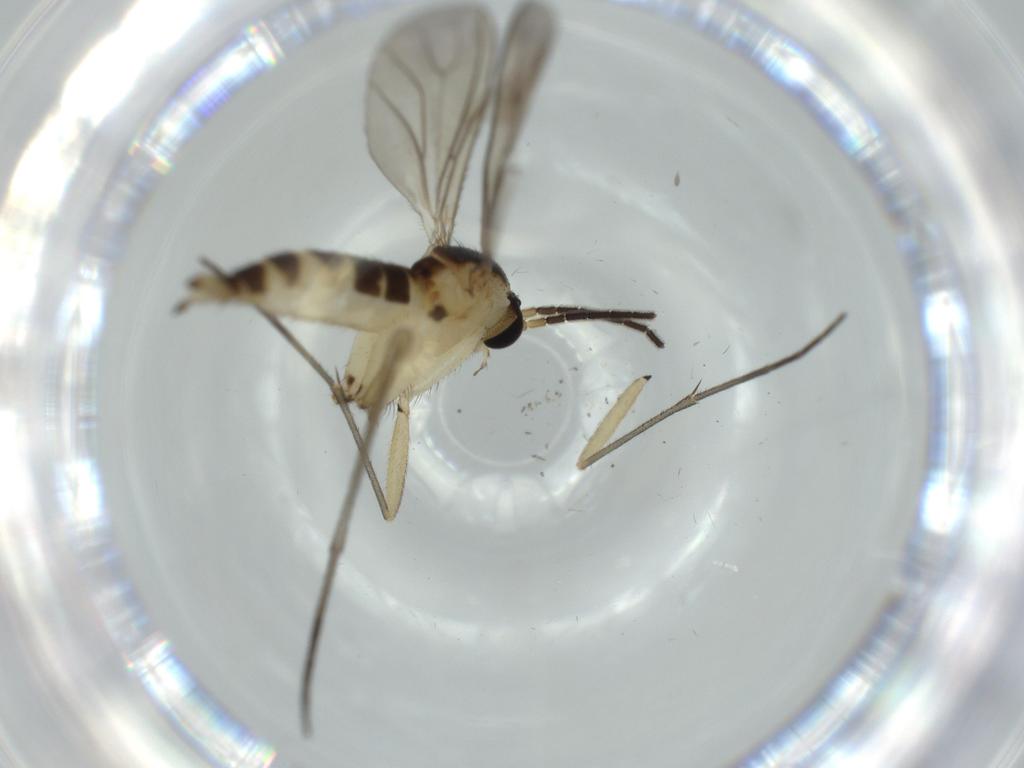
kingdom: Animalia
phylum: Arthropoda
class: Insecta
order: Diptera
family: Sciaridae
